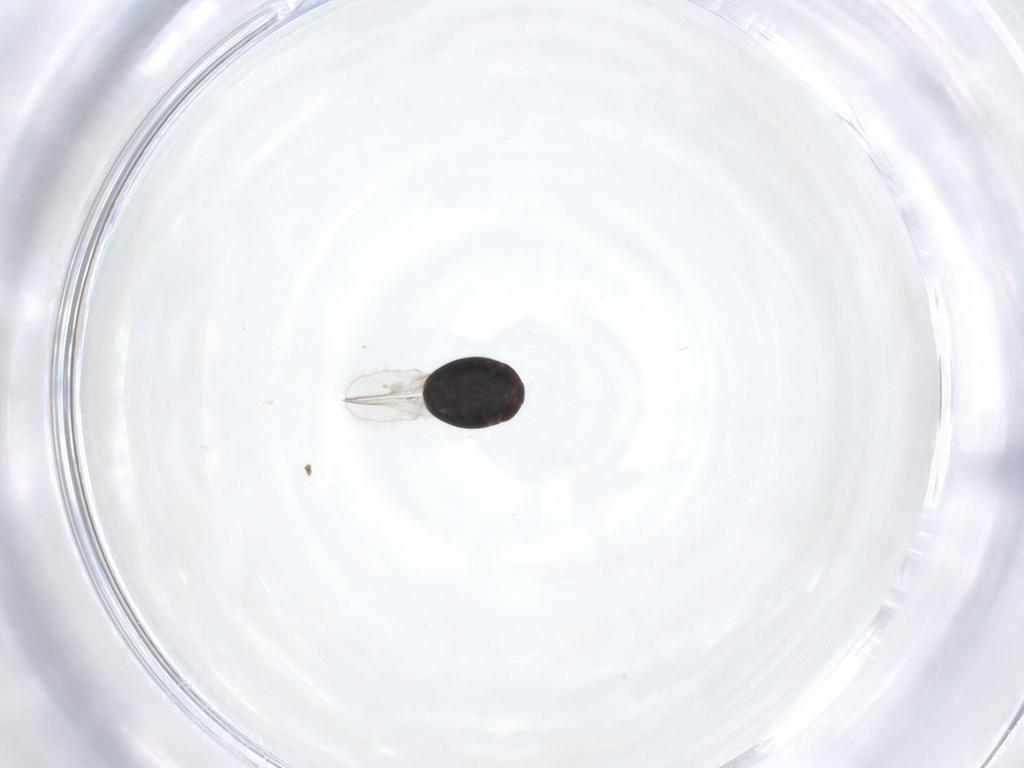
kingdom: Animalia
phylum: Arthropoda
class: Insecta
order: Coleoptera
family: Corylophidae
